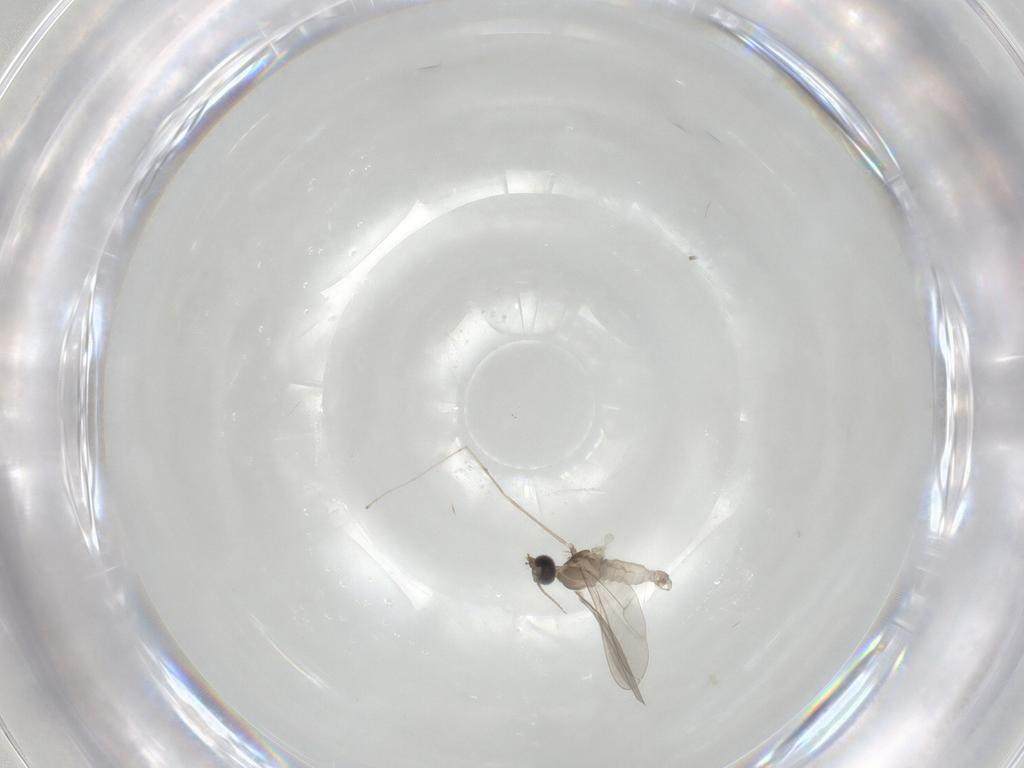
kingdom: Animalia
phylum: Arthropoda
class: Insecta
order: Diptera
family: Cecidomyiidae
